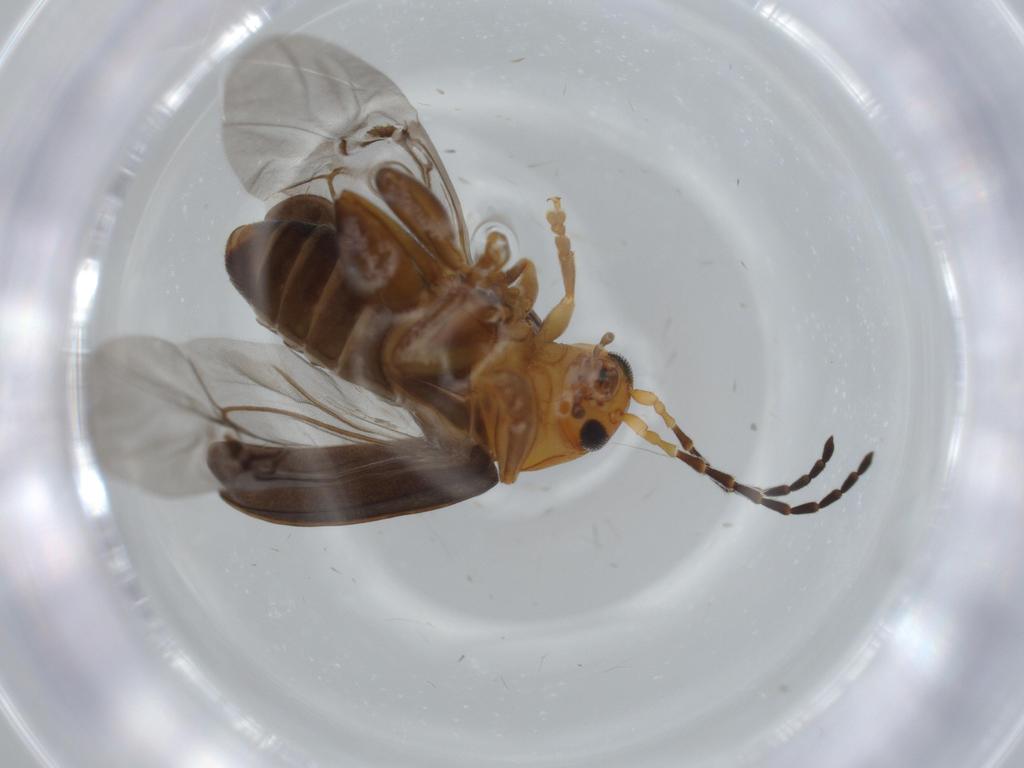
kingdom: Animalia
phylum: Arthropoda
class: Insecta
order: Coleoptera
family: Chrysomelidae
